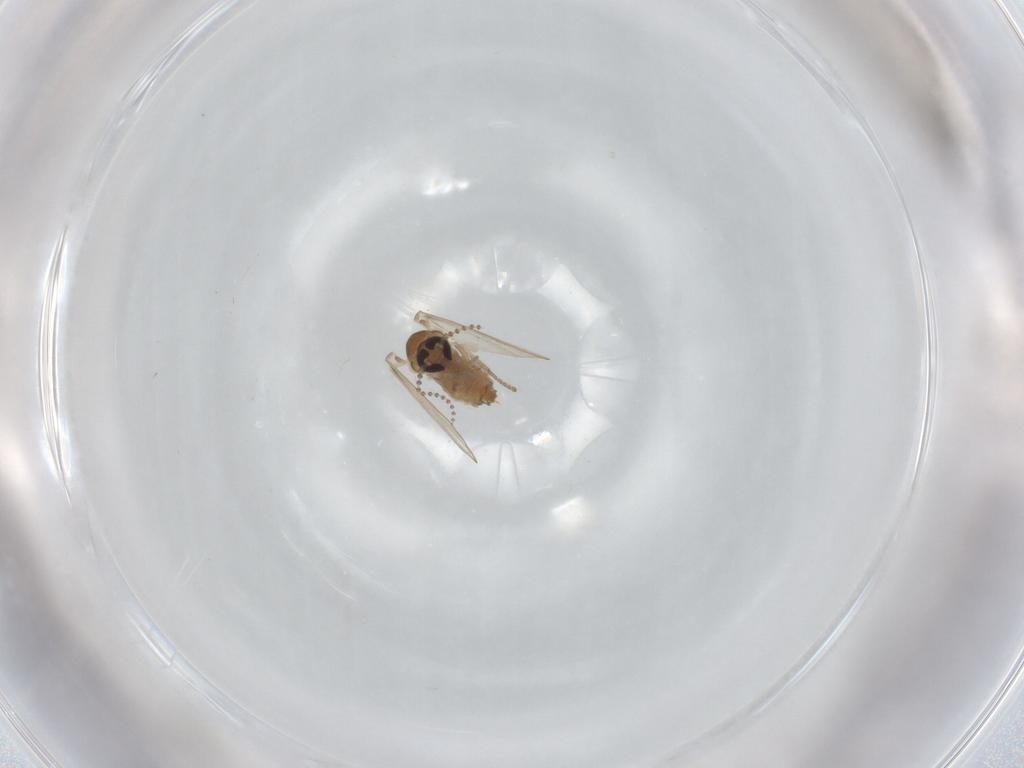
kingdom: Animalia
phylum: Arthropoda
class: Insecta
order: Diptera
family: Psychodidae
